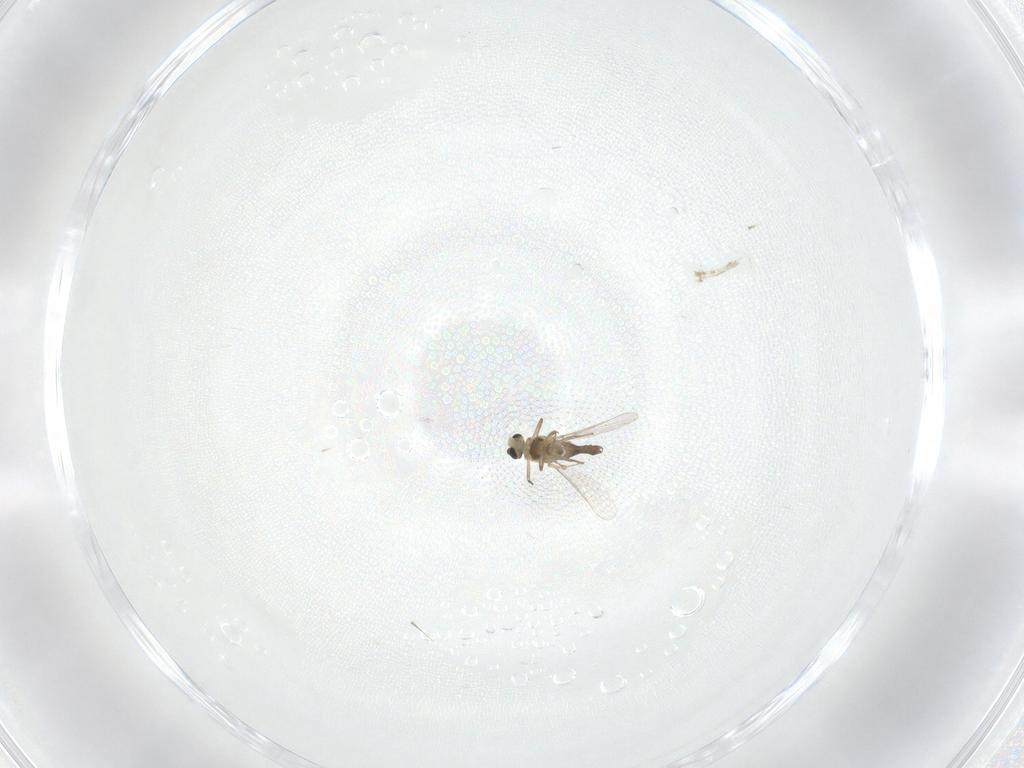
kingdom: Animalia
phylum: Arthropoda
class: Insecta
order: Diptera
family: Chironomidae
